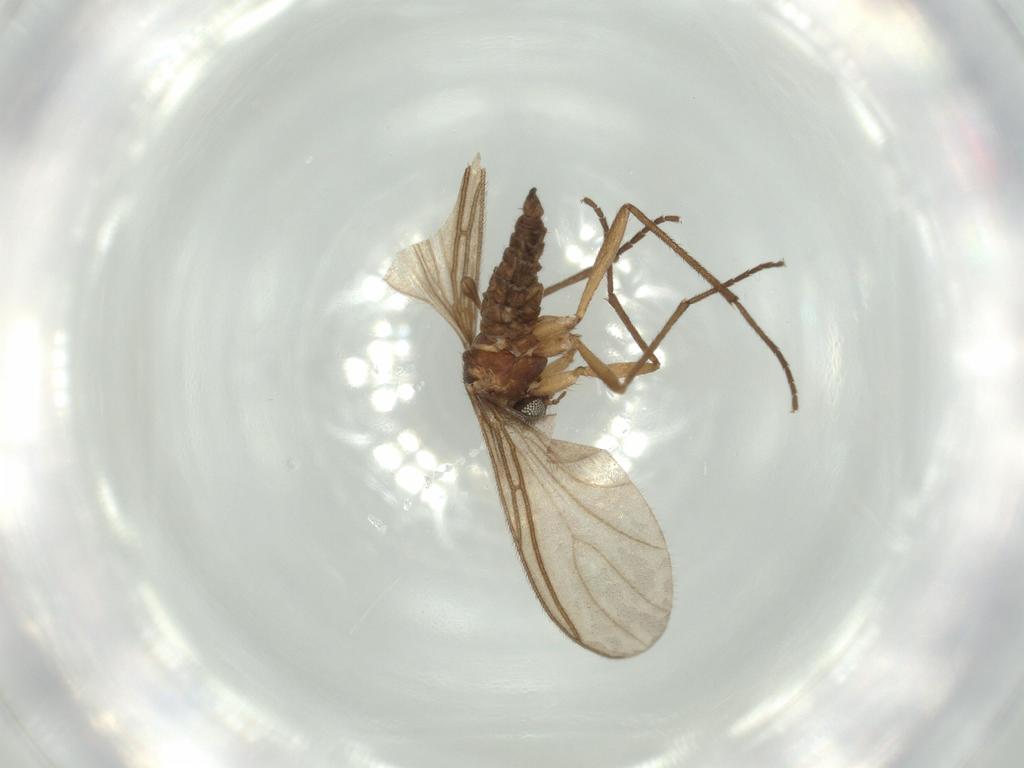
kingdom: Animalia
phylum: Arthropoda
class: Insecta
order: Diptera
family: Sciaridae
